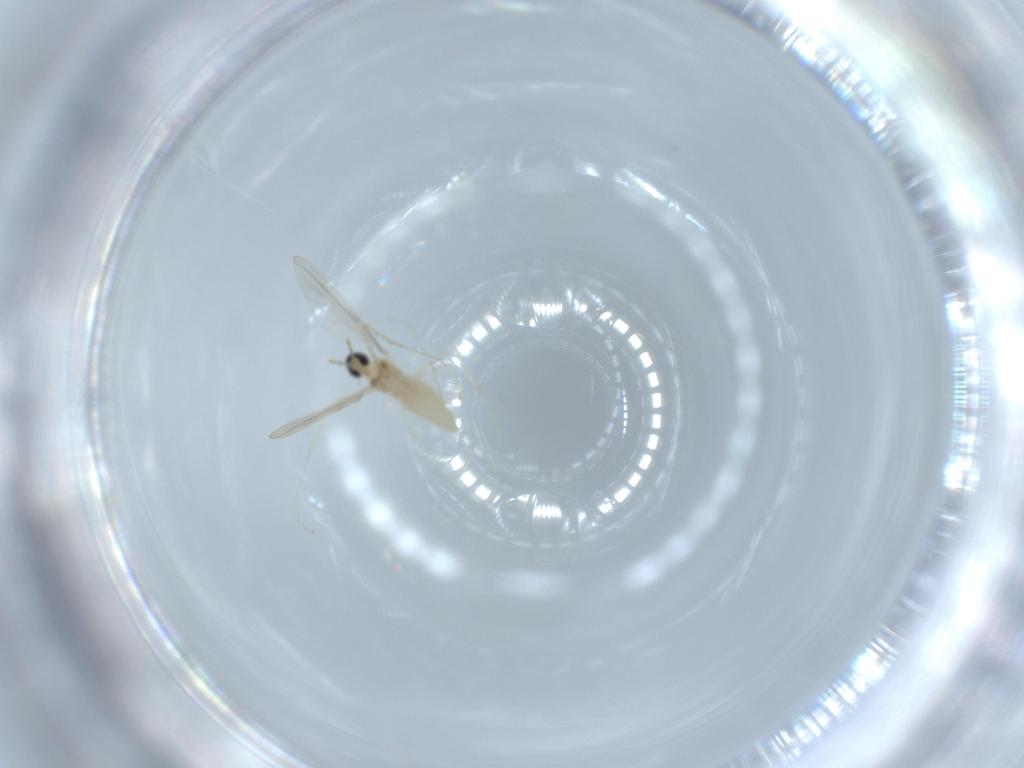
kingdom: Animalia
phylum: Arthropoda
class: Insecta
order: Diptera
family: Cecidomyiidae
